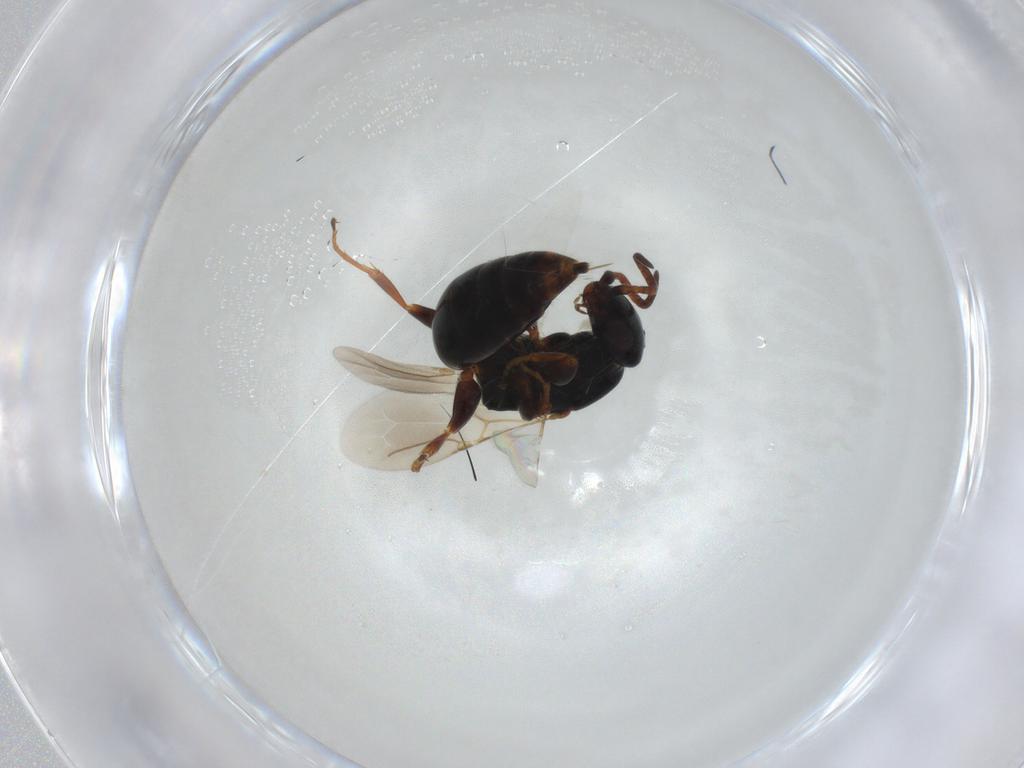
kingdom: Animalia
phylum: Arthropoda
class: Insecta
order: Hymenoptera
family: Bethylidae
